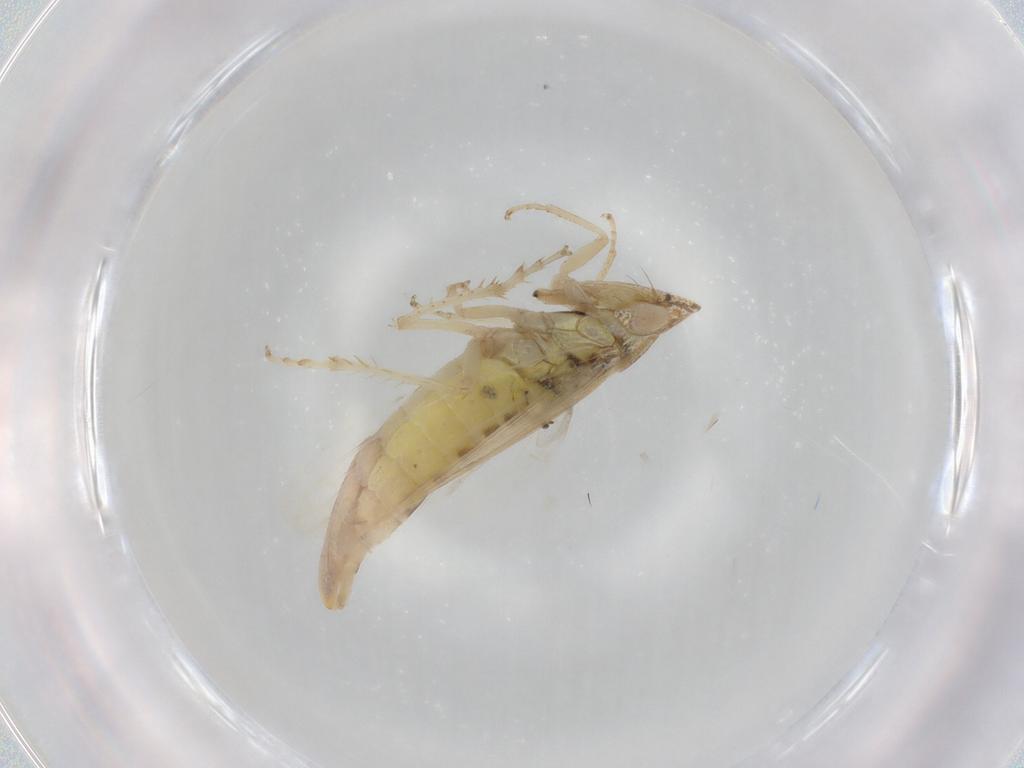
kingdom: Animalia
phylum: Arthropoda
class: Insecta
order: Hemiptera
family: Cicadellidae
